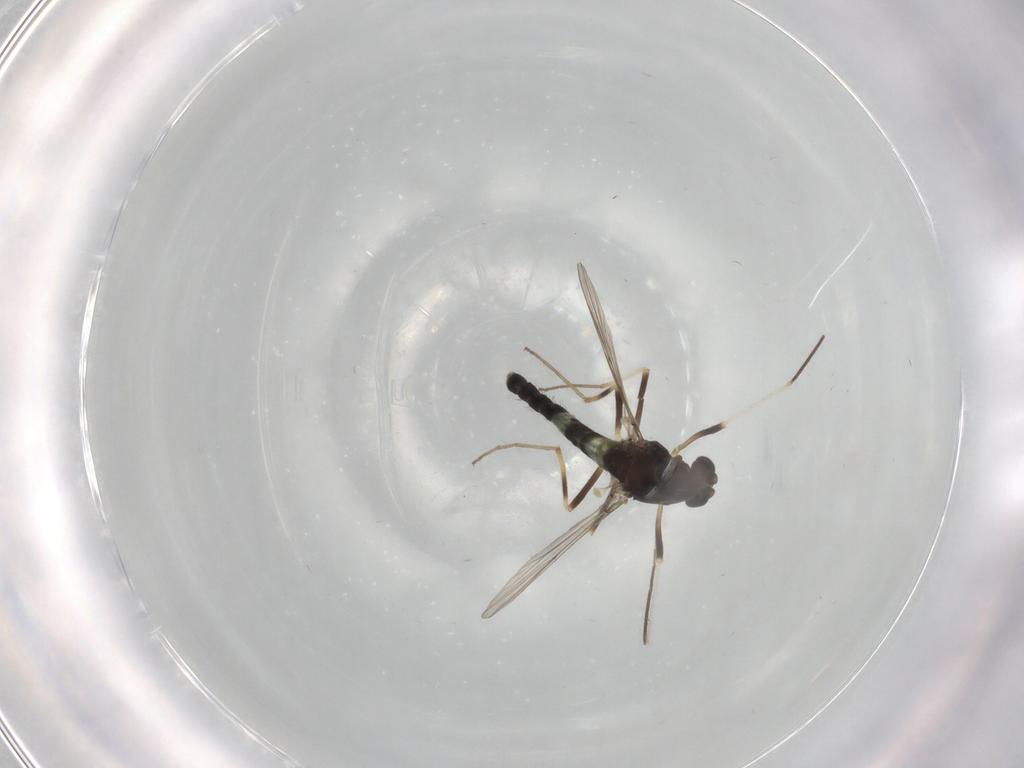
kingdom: Animalia
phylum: Arthropoda
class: Insecta
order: Diptera
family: Chironomidae
